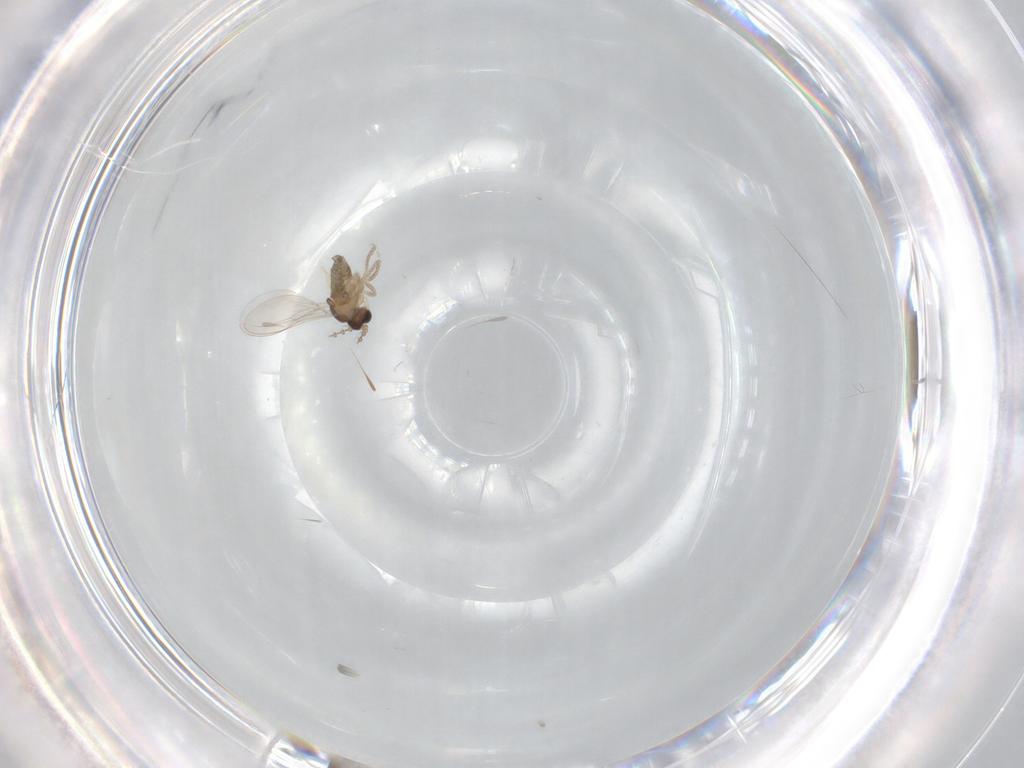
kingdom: Animalia
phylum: Arthropoda
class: Insecta
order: Diptera
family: Cecidomyiidae
